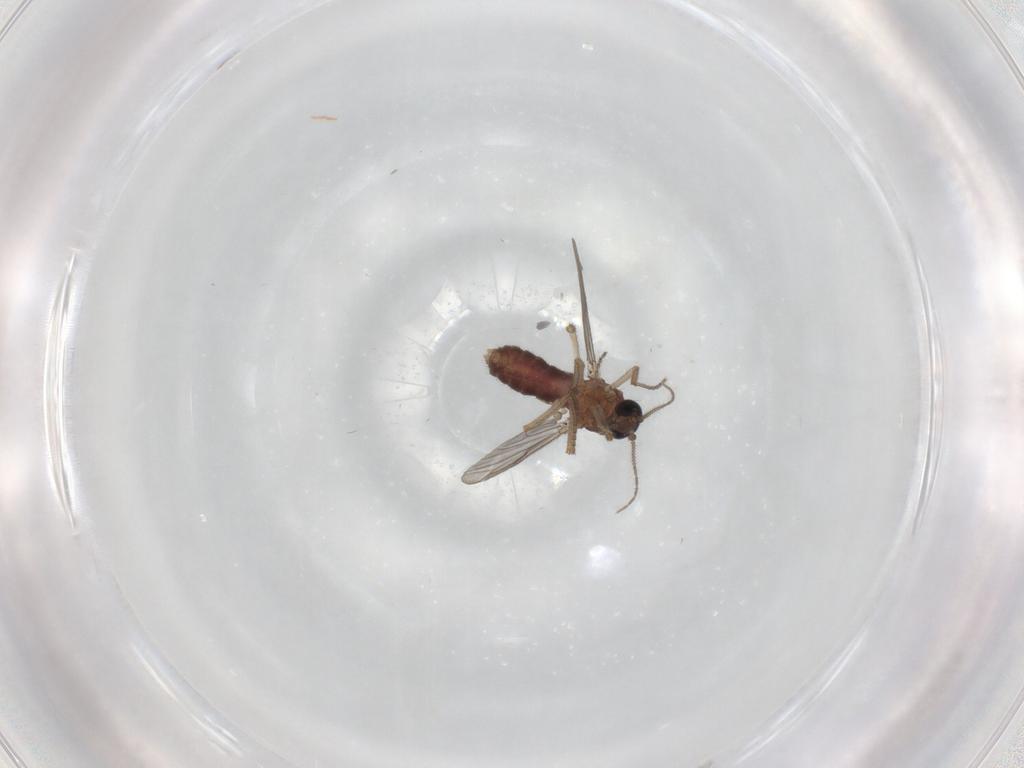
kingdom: Animalia
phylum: Arthropoda
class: Insecta
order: Diptera
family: Ceratopogonidae
